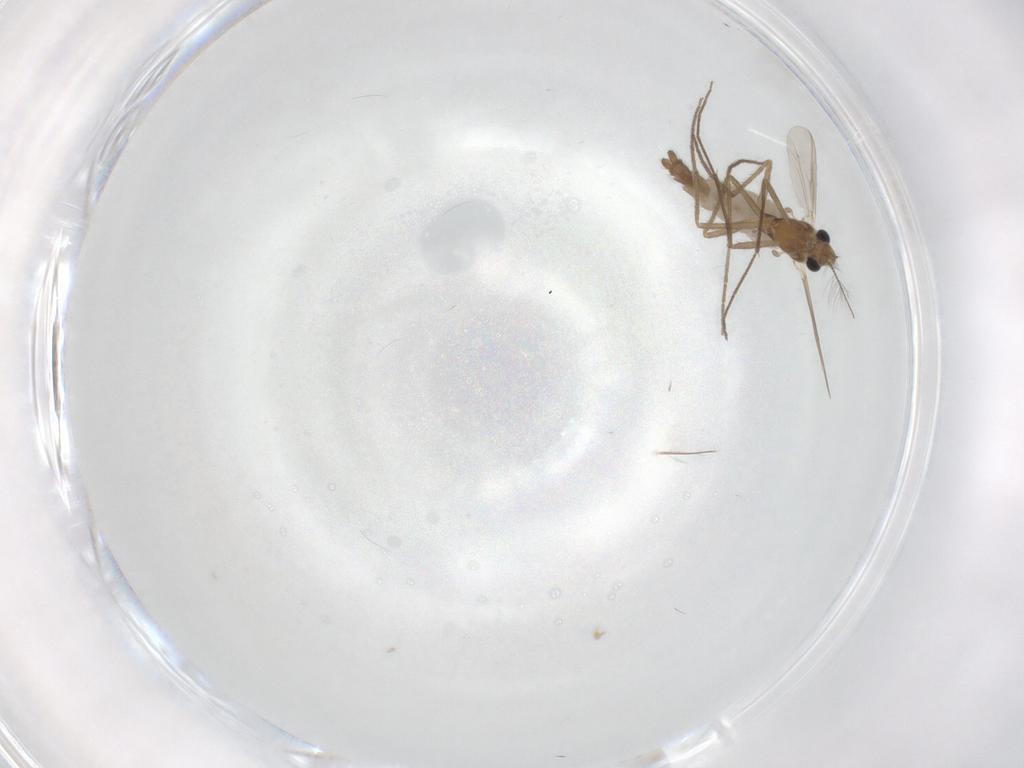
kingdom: Animalia
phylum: Arthropoda
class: Insecta
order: Diptera
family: Chironomidae
